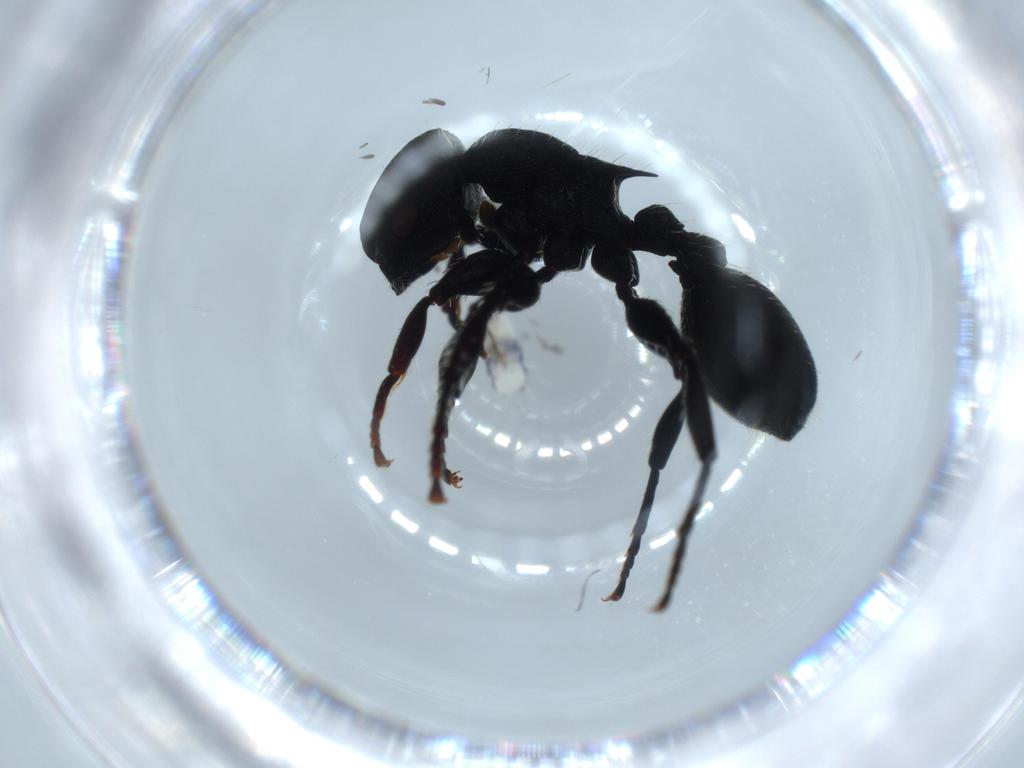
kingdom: Animalia
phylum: Arthropoda
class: Insecta
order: Hymenoptera
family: Formicidae
